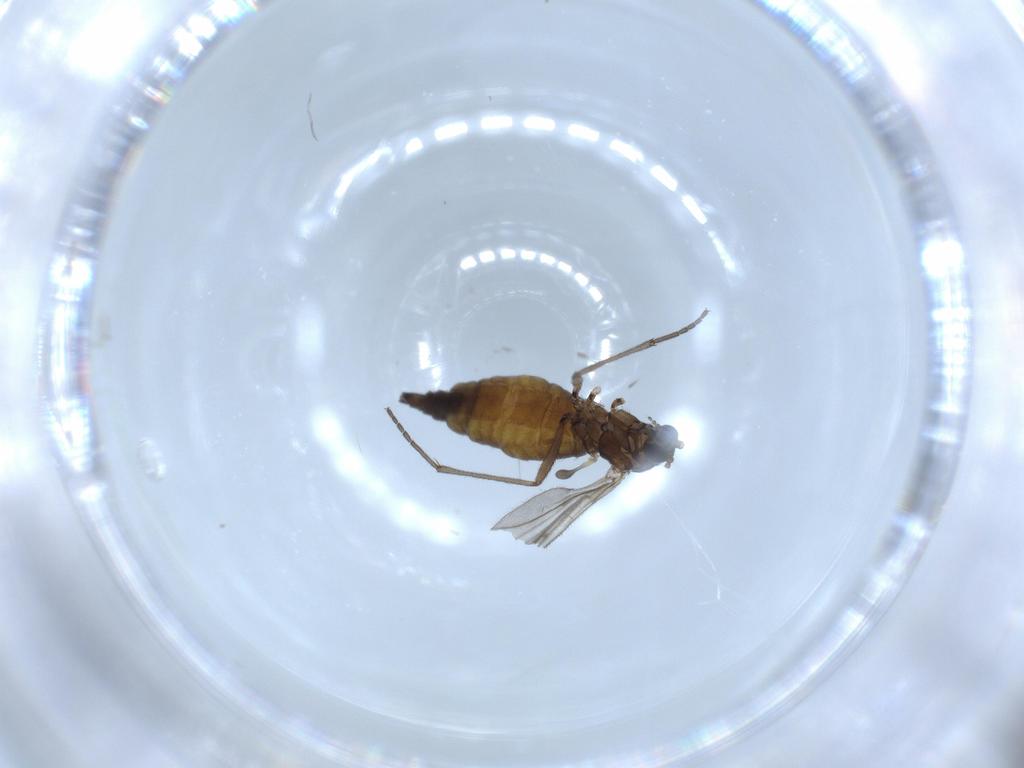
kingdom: Animalia
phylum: Arthropoda
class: Insecta
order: Diptera
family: Sciaridae
